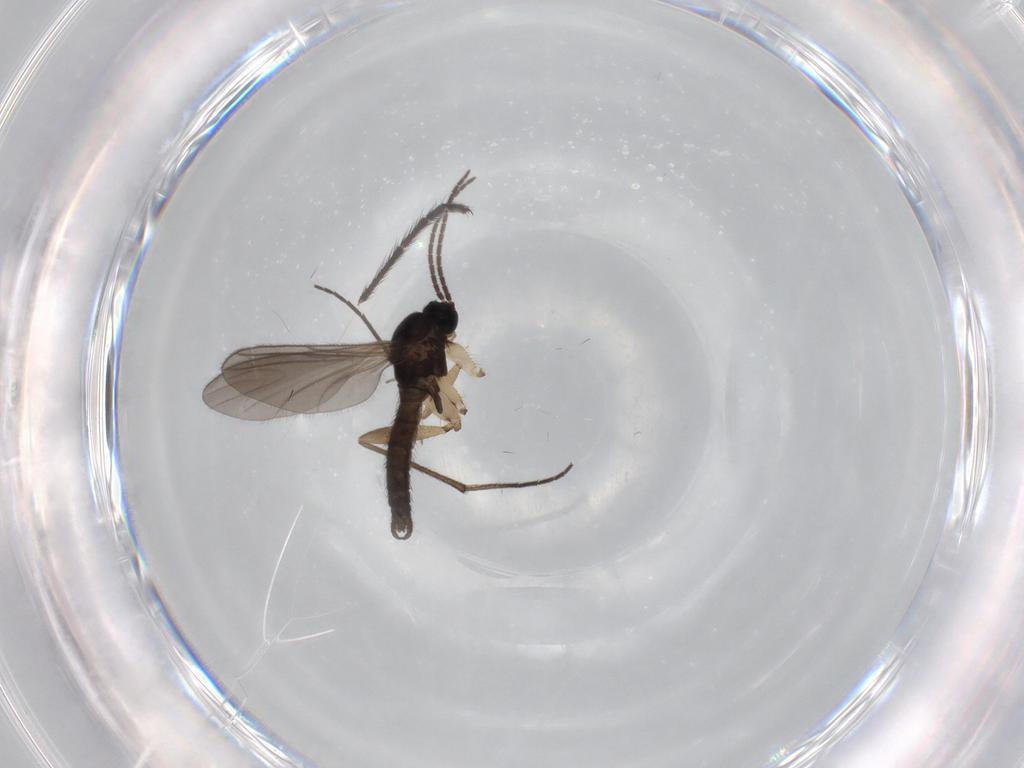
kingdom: Animalia
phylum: Arthropoda
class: Insecta
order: Diptera
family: Sciaridae
